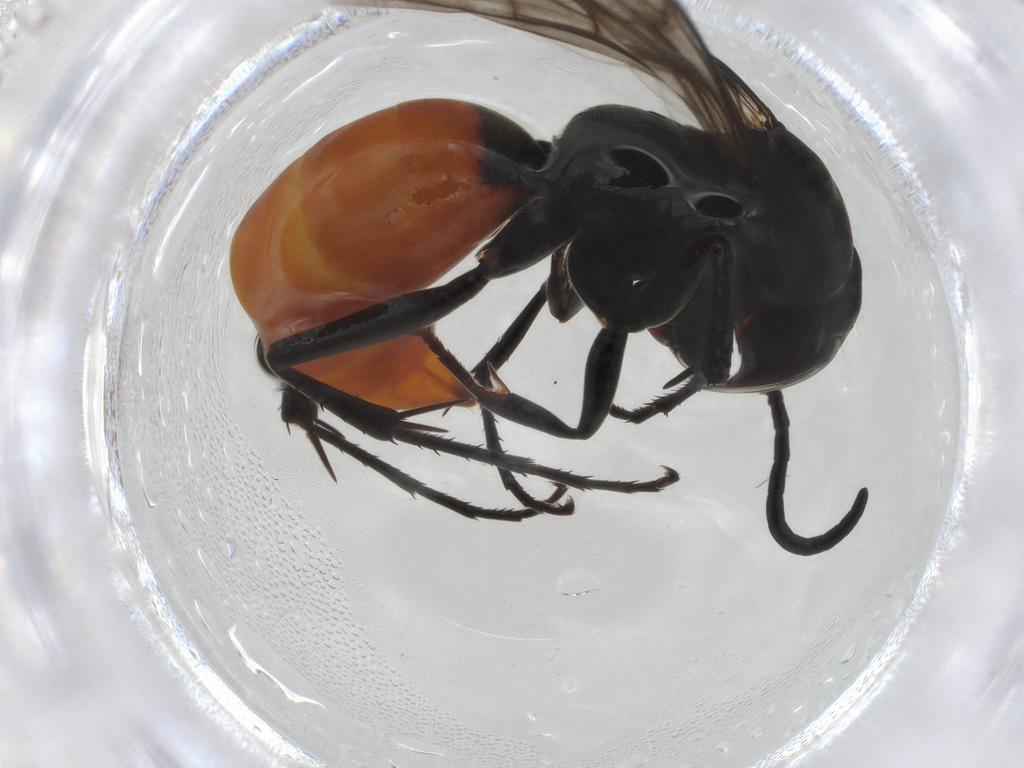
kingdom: Animalia
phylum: Arthropoda
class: Insecta
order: Hymenoptera
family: Pompilidae
